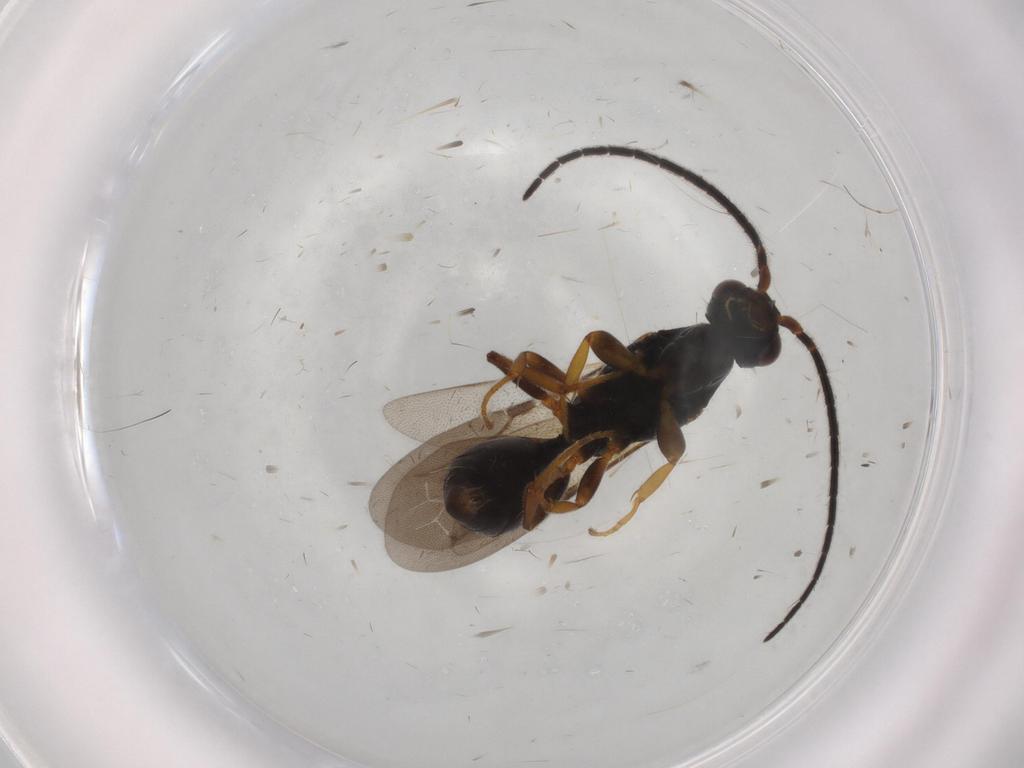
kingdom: Animalia
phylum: Arthropoda
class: Insecta
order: Hymenoptera
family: Bethylidae
